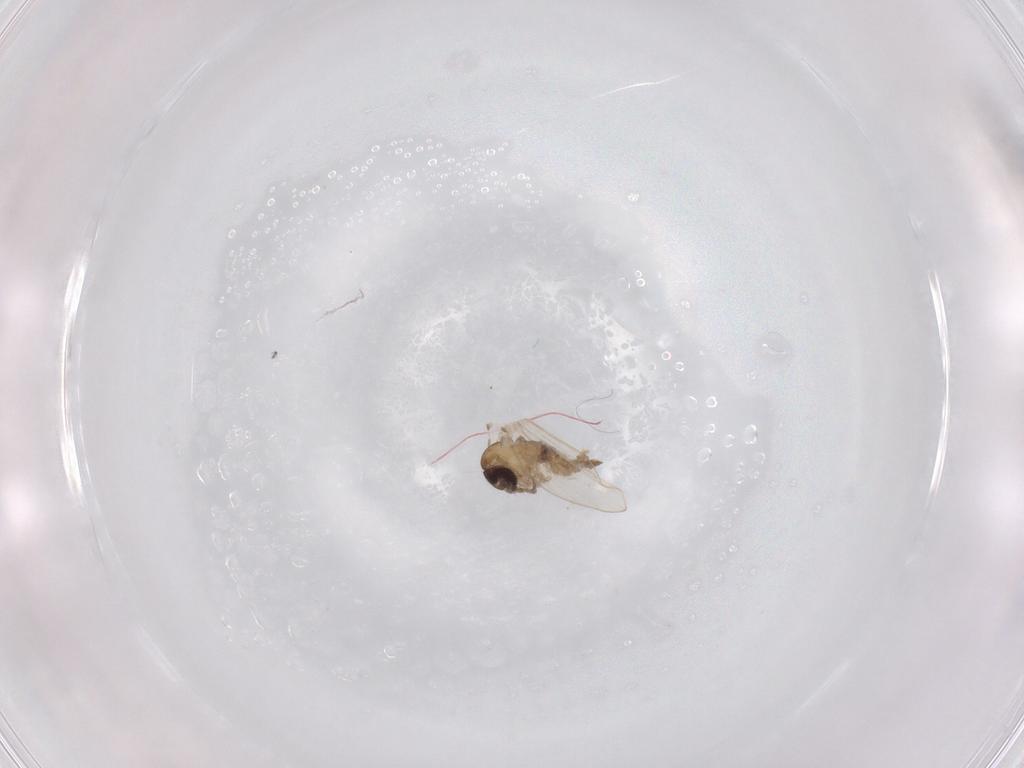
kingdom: Animalia
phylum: Arthropoda
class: Insecta
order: Diptera
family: Psychodidae
